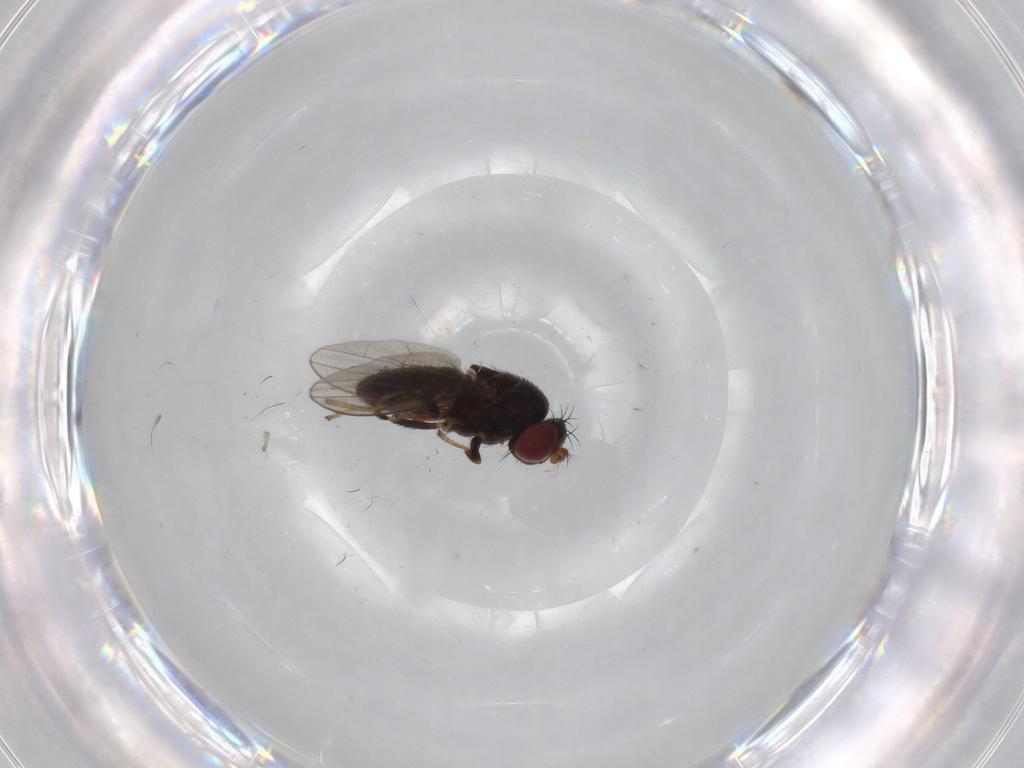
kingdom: Animalia
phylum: Arthropoda
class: Insecta
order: Diptera
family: Ephydridae
